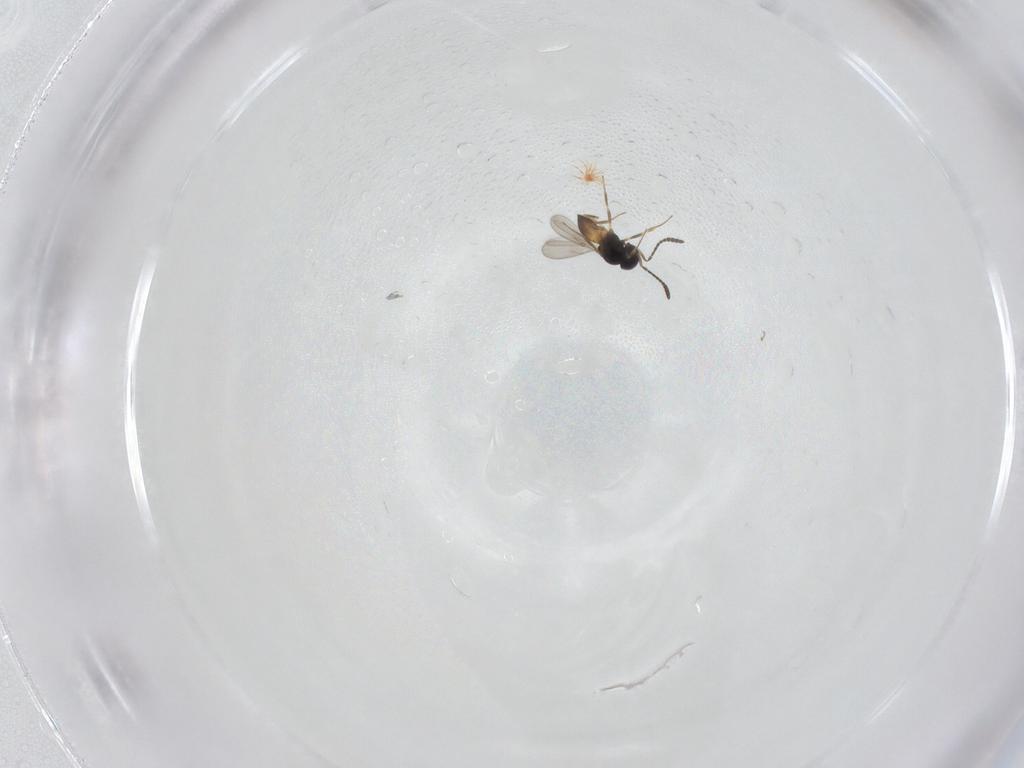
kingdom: Animalia
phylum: Arthropoda
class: Insecta
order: Hymenoptera
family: Scelionidae
